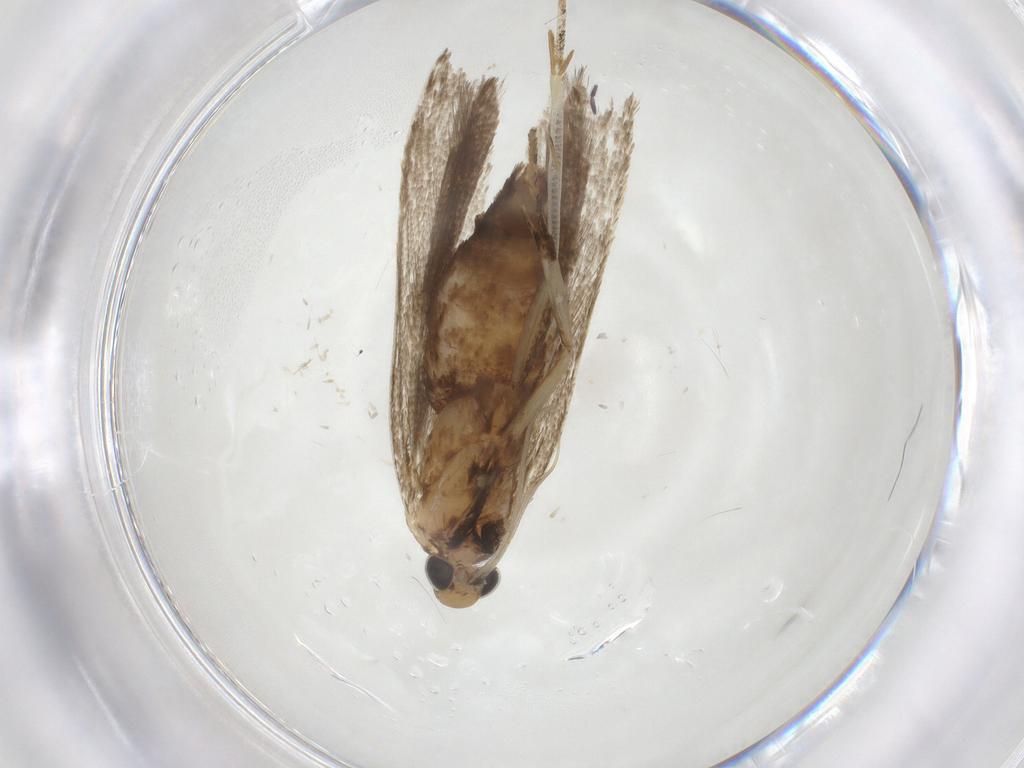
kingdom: Animalia
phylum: Arthropoda
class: Insecta
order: Lepidoptera
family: Gelechiidae
